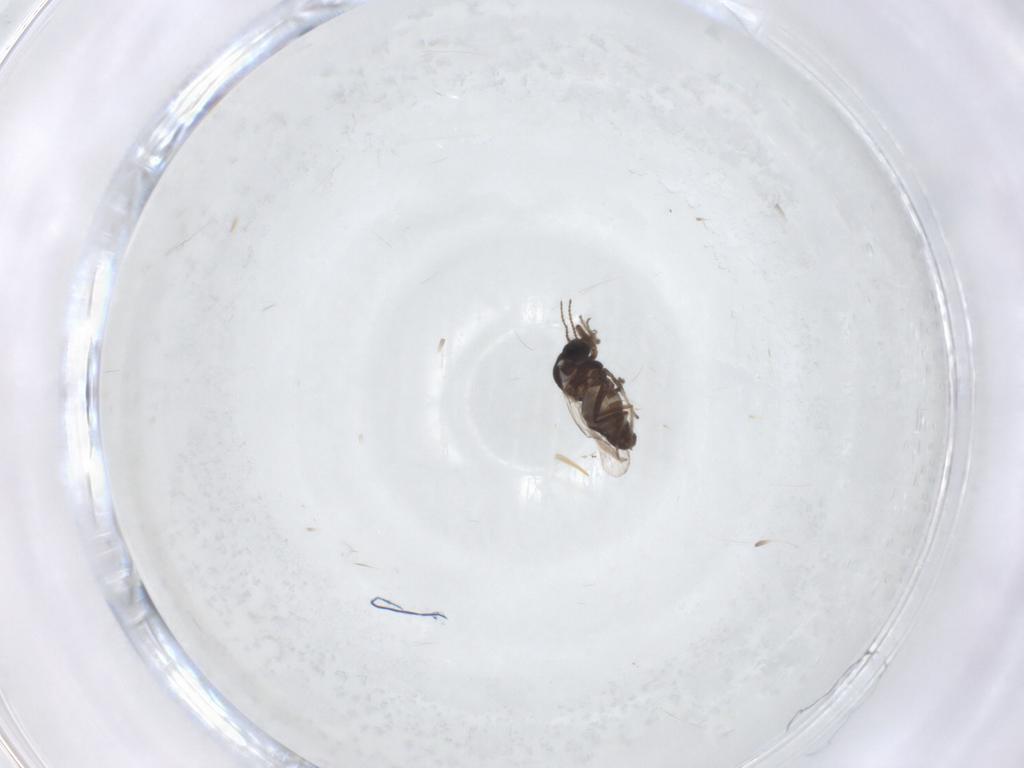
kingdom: Animalia
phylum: Arthropoda
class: Insecta
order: Diptera
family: Ceratopogonidae
